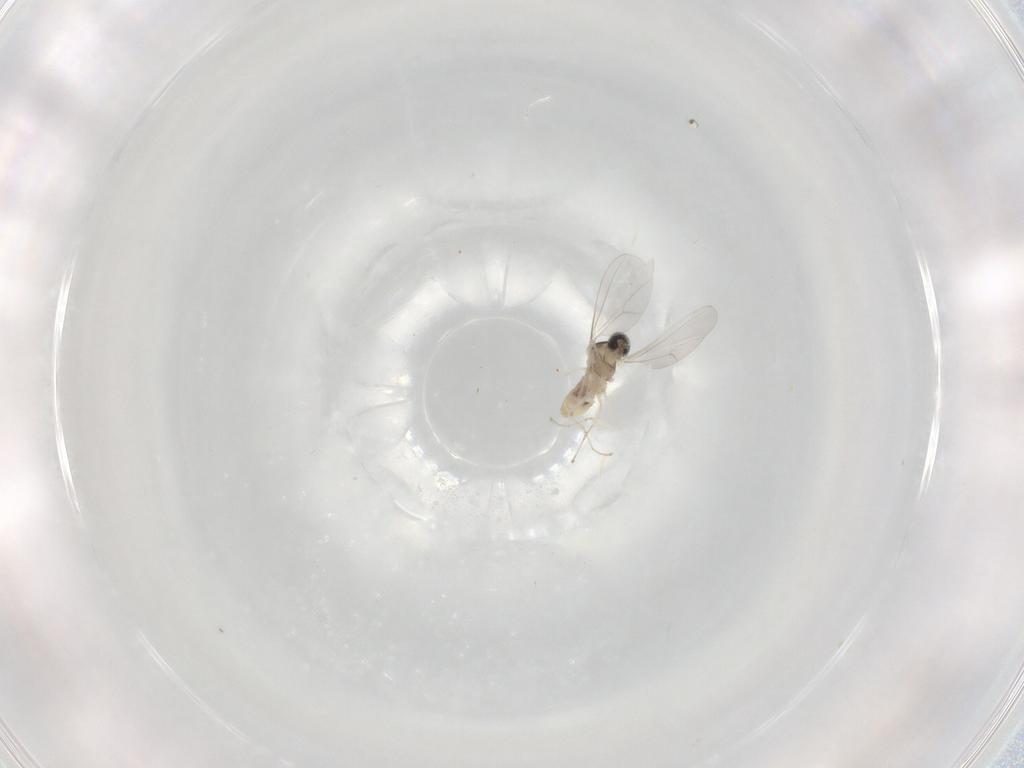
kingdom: Animalia
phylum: Arthropoda
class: Insecta
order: Diptera
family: Cecidomyiidae
